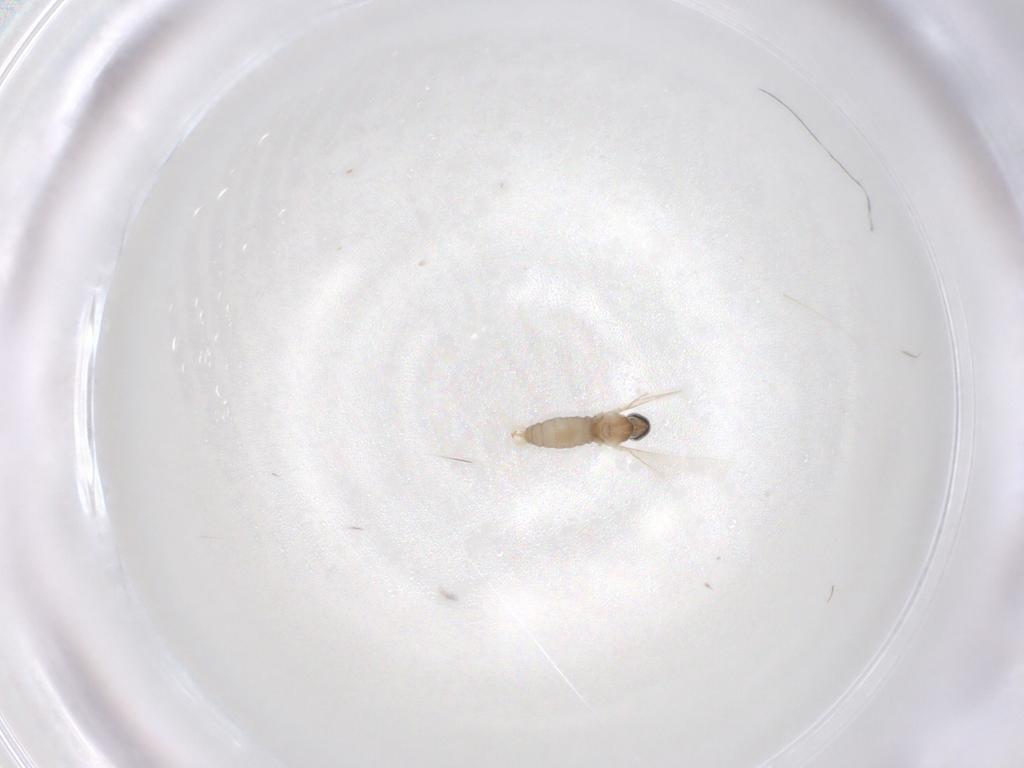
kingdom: Animalia
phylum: Arthropoda
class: Insecta
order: Diptera
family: Cecidomyiidae
